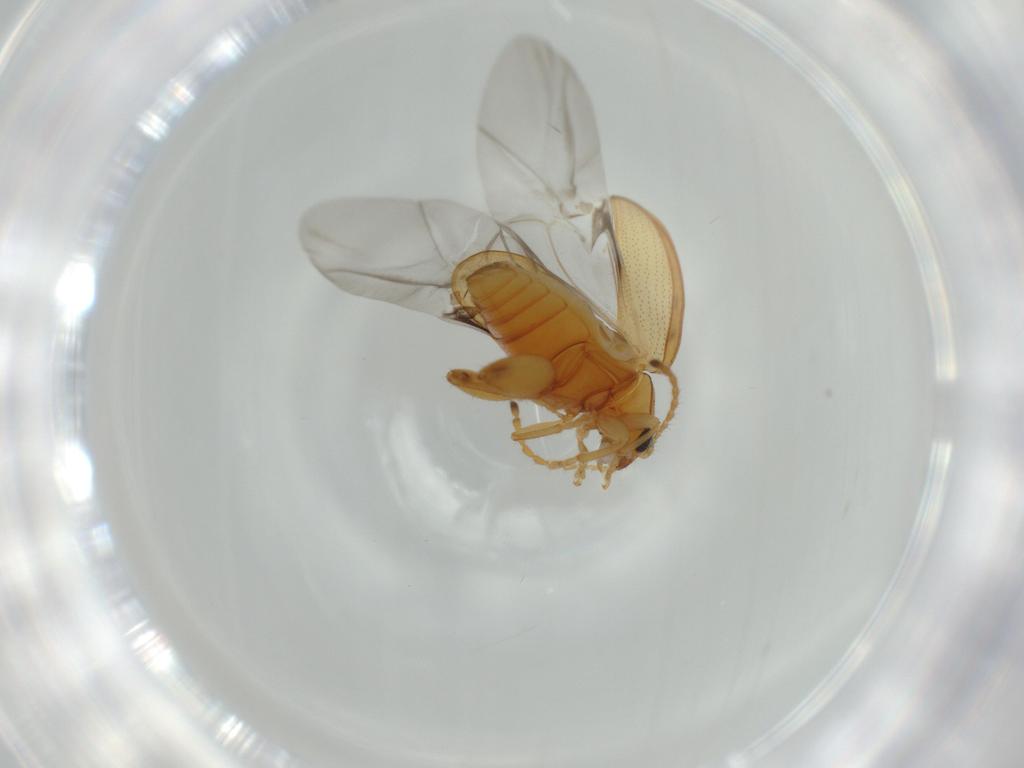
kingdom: Animalia
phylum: Arthropoda
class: Insecta
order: Coleoptera
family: Chrysomelidae
